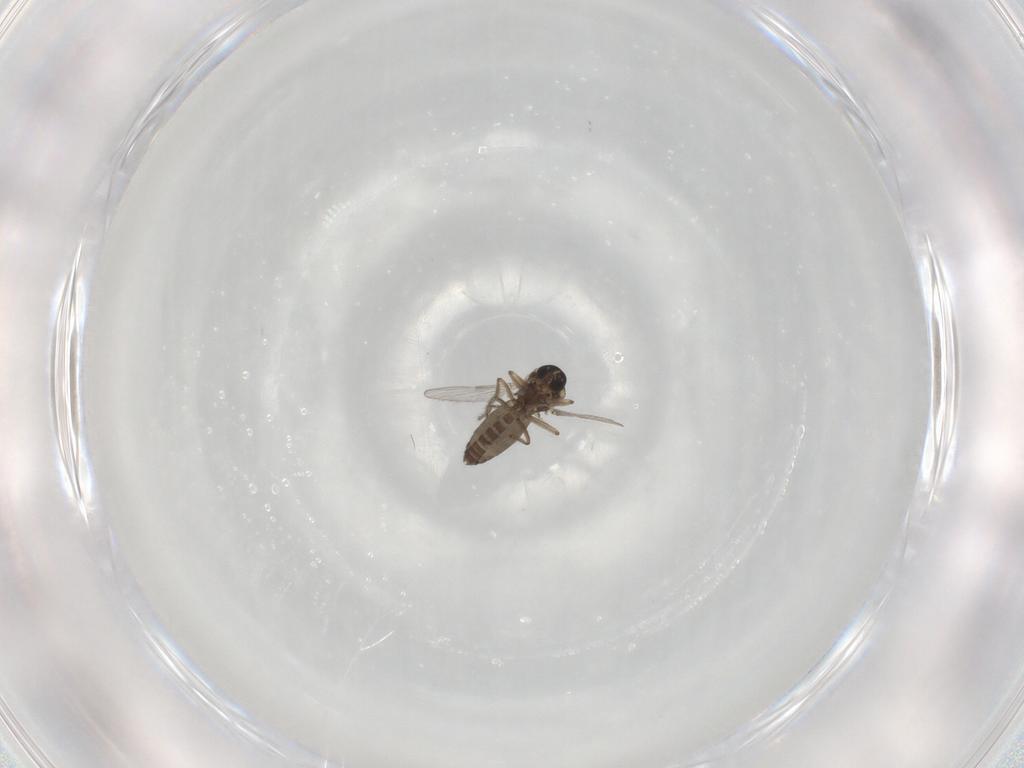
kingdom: Animalia
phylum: Arthropoda
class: Insecta
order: Diptera
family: Ceratopogonidae
